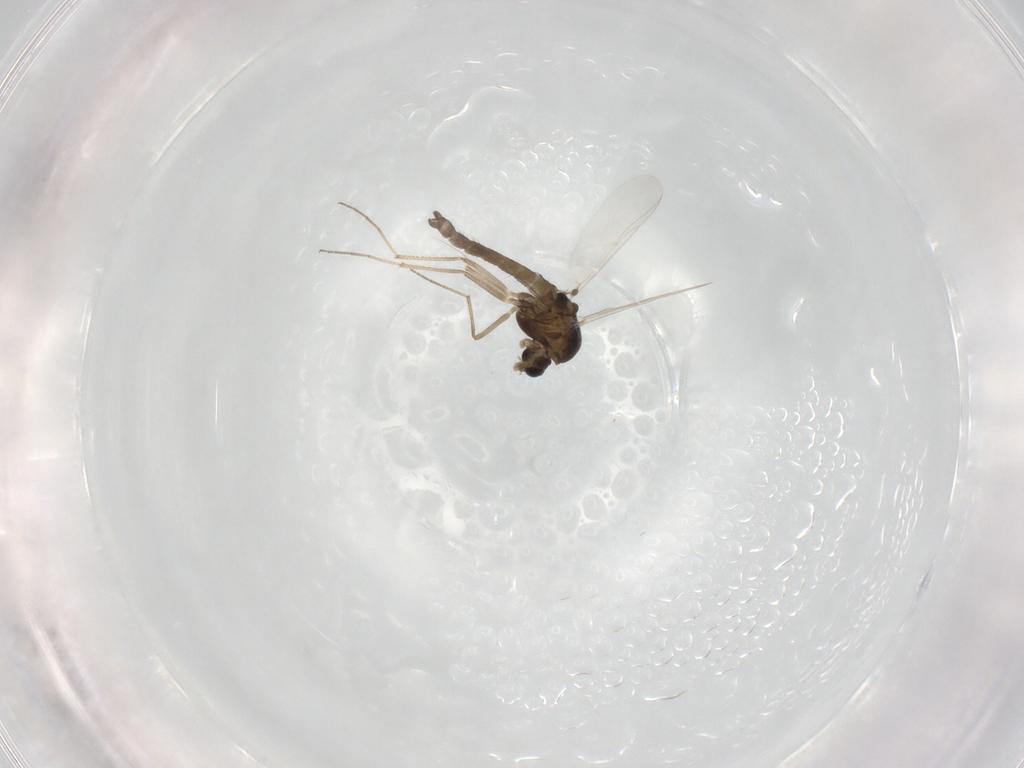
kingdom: Animalia
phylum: Arthropoda
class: Insecta
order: Diptera
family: Chironomidae
